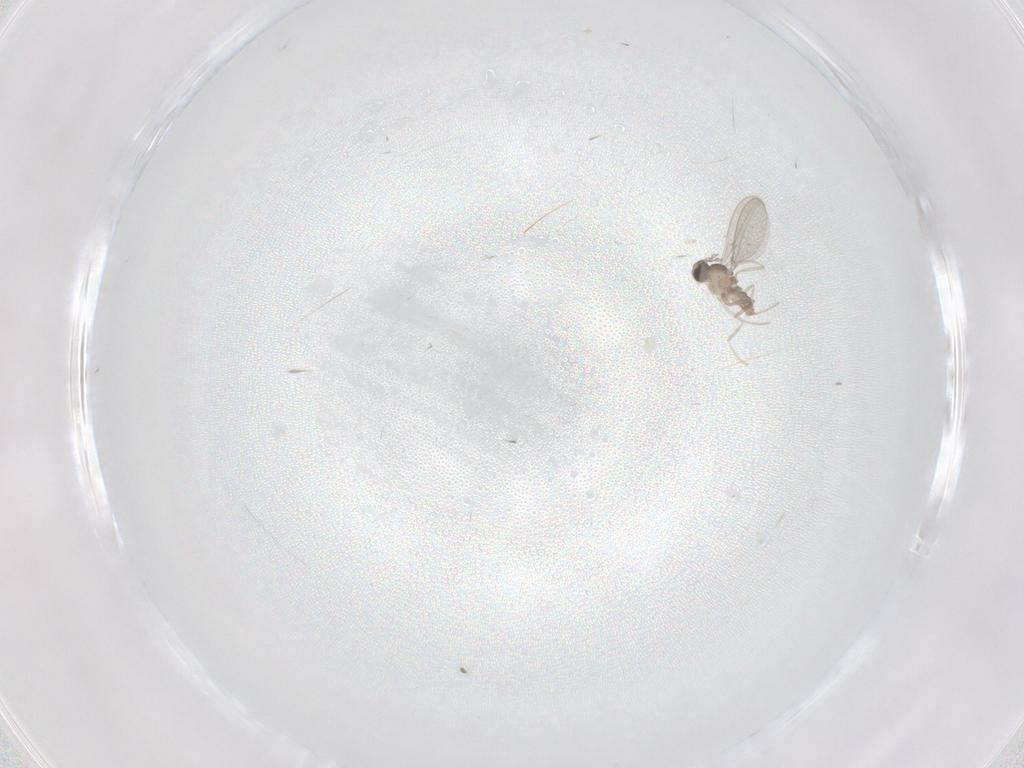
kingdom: Animalia
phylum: Arthropoda
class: Insecta
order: Diptera
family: Cecidomyiidae
